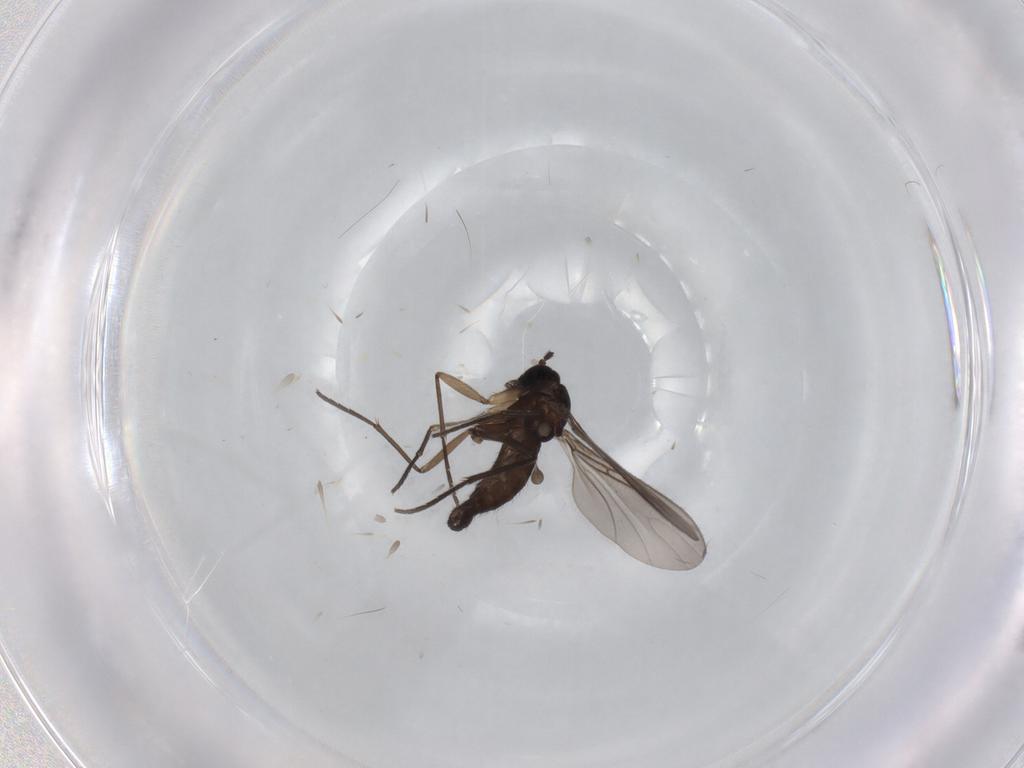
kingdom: Animalia
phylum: Arthropoda
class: Insecta
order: Diptera
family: Sciaridae
